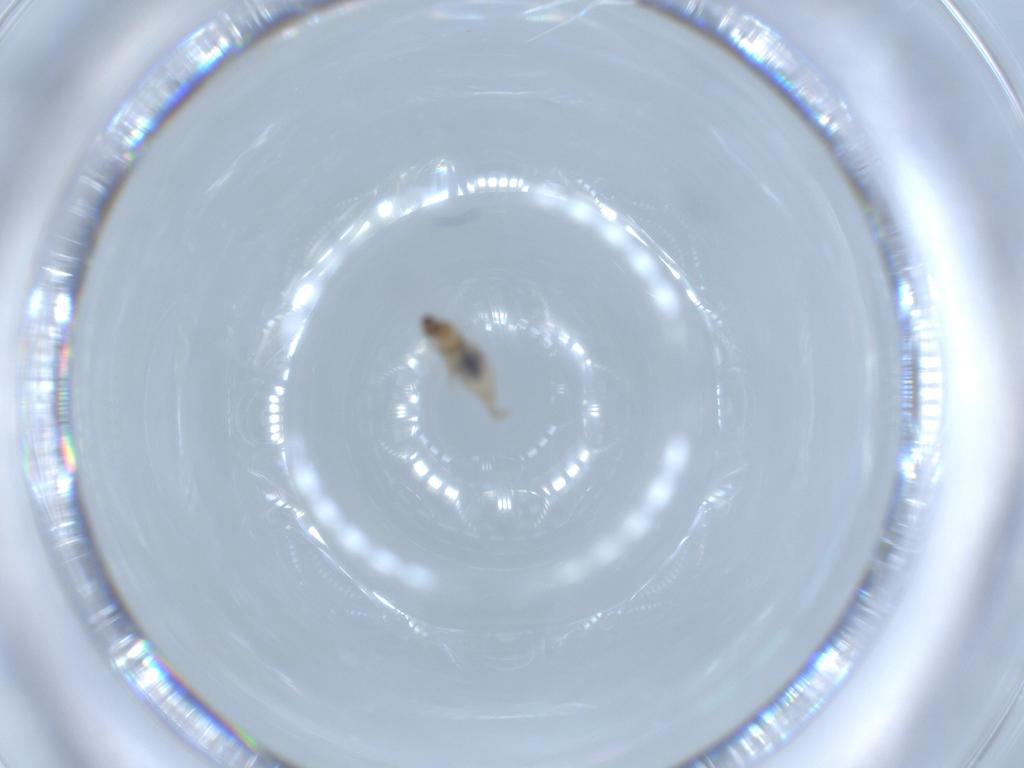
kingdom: Animalia
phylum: Arthropoda
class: Insecta
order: Diptera
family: Cecidomyiidae
